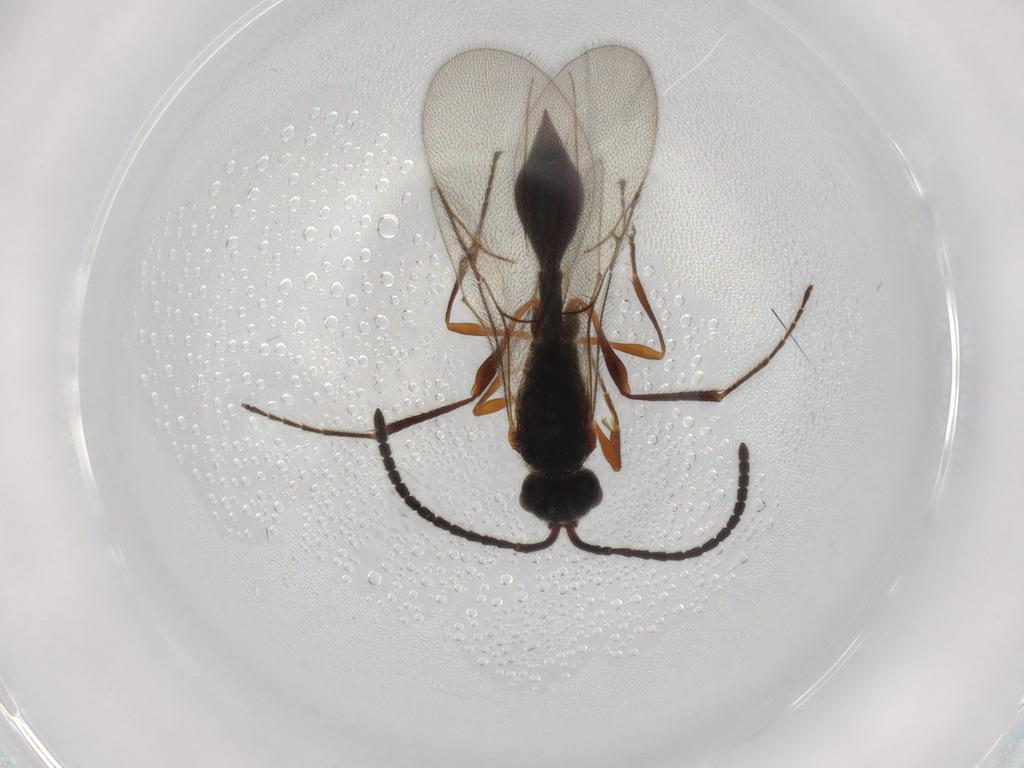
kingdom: Animalia
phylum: Arthropoda
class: Insecta
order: Hymenoptera
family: Diapriidae
